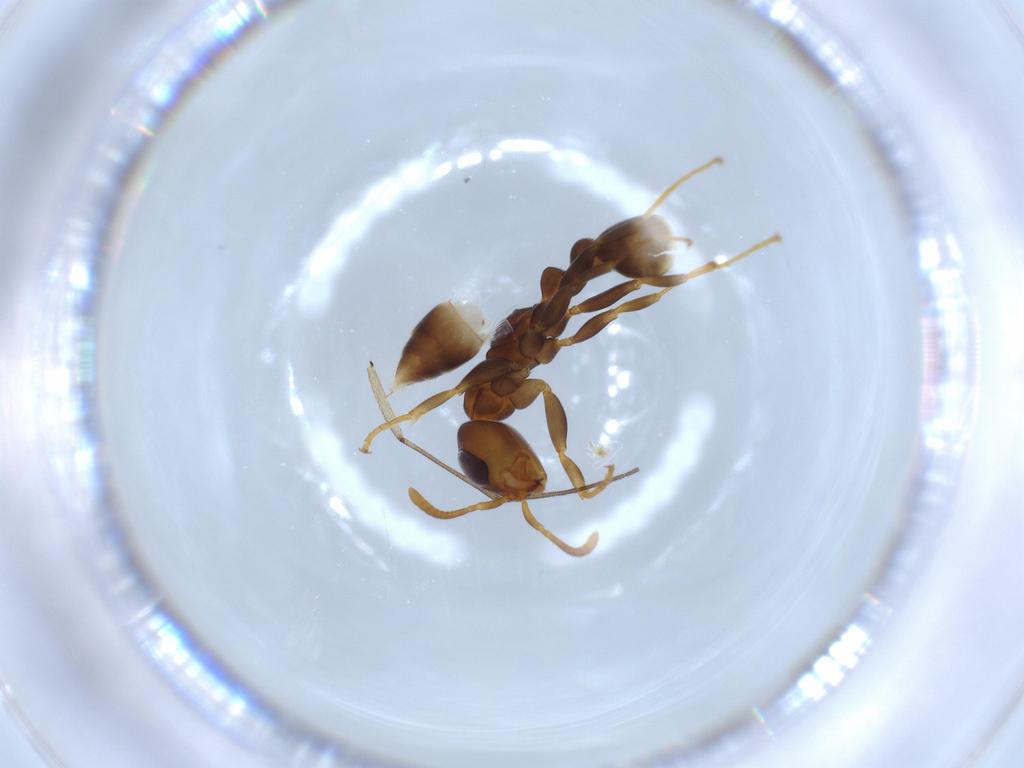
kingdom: Animalia
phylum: Arthropoda
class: Insecta
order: Hymenoptera
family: Formicidae
